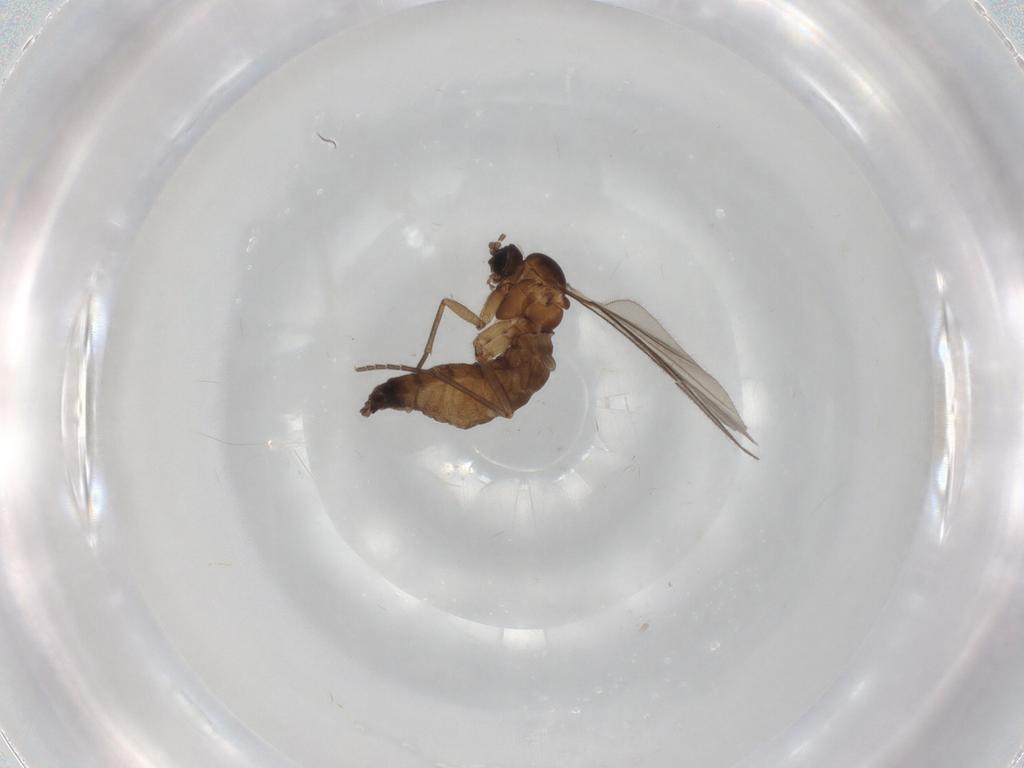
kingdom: Animalia
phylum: Arthropoda
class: Insecta
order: Diptera
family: Sciaridae
